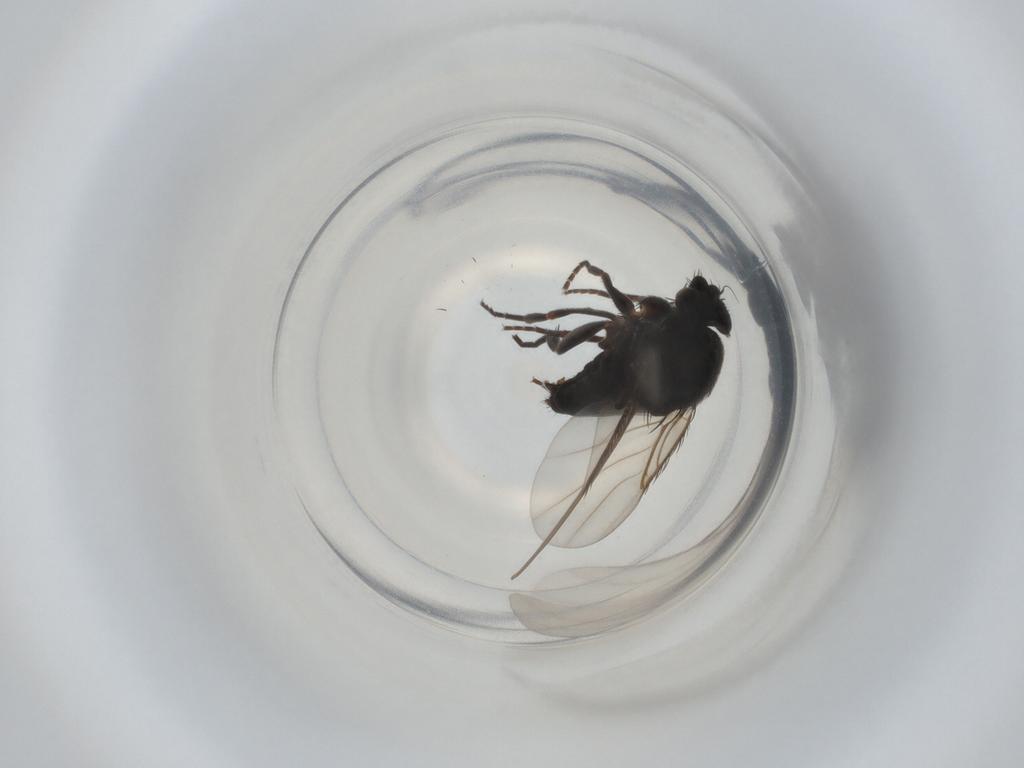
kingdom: Animalia
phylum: Arthropoda
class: Insecta
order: Diptera
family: Phoridae
